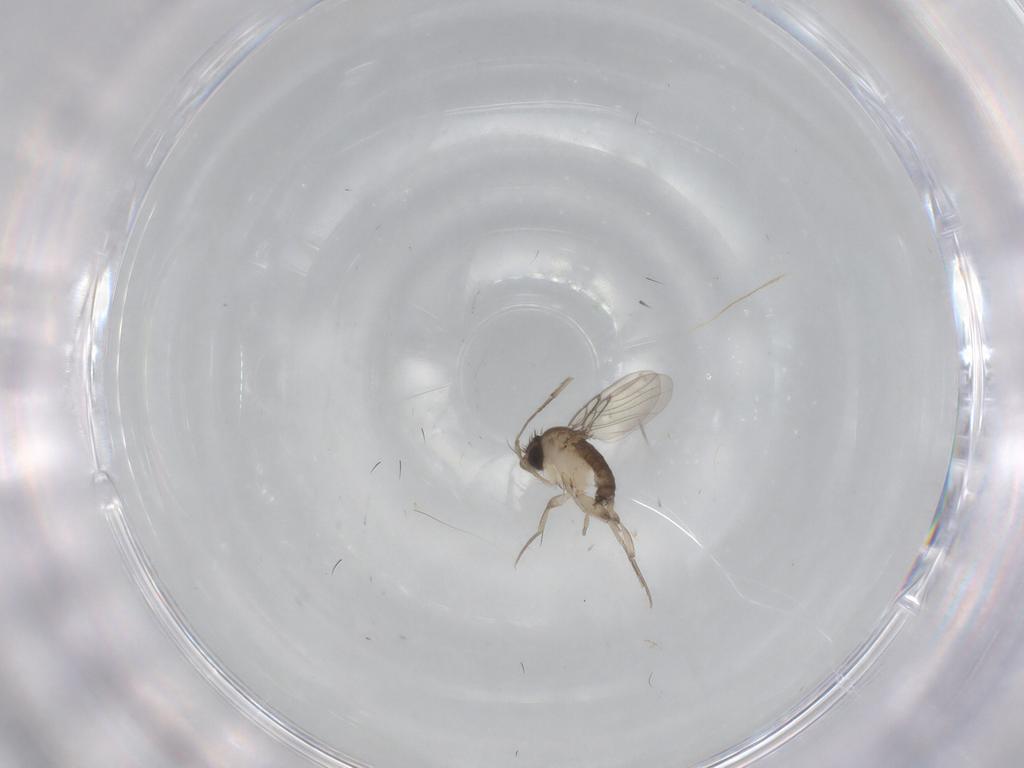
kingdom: Animalia
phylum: Arthropoda
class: Insecta
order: Diptera
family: Phoridae
